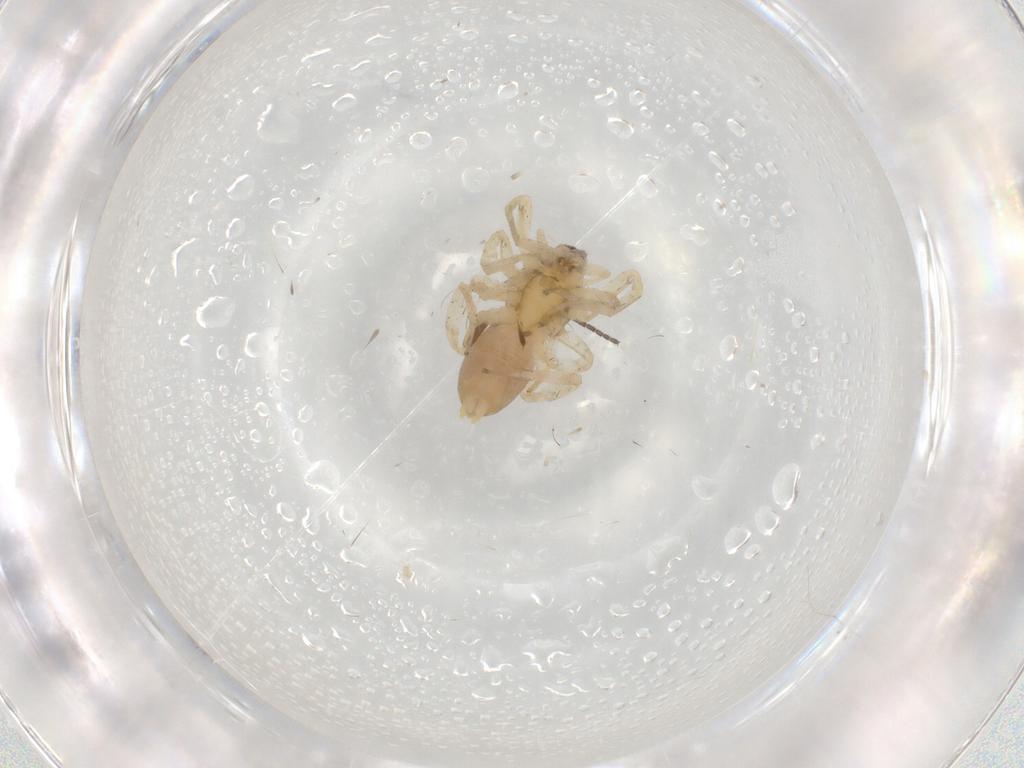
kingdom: Animalia
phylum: Arthropoda
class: Arachnida
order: Araneae
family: Anyphaenidae
